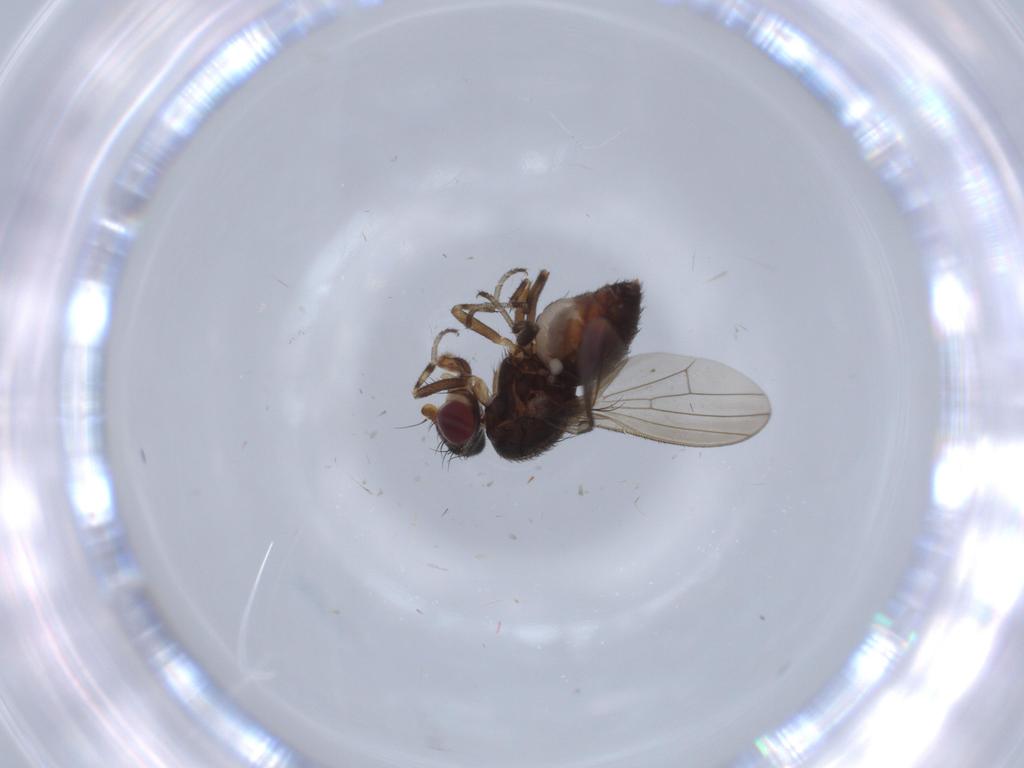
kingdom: Animalia
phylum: Arthropoda
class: Insecta
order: Diptera
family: Heleomyzidae
